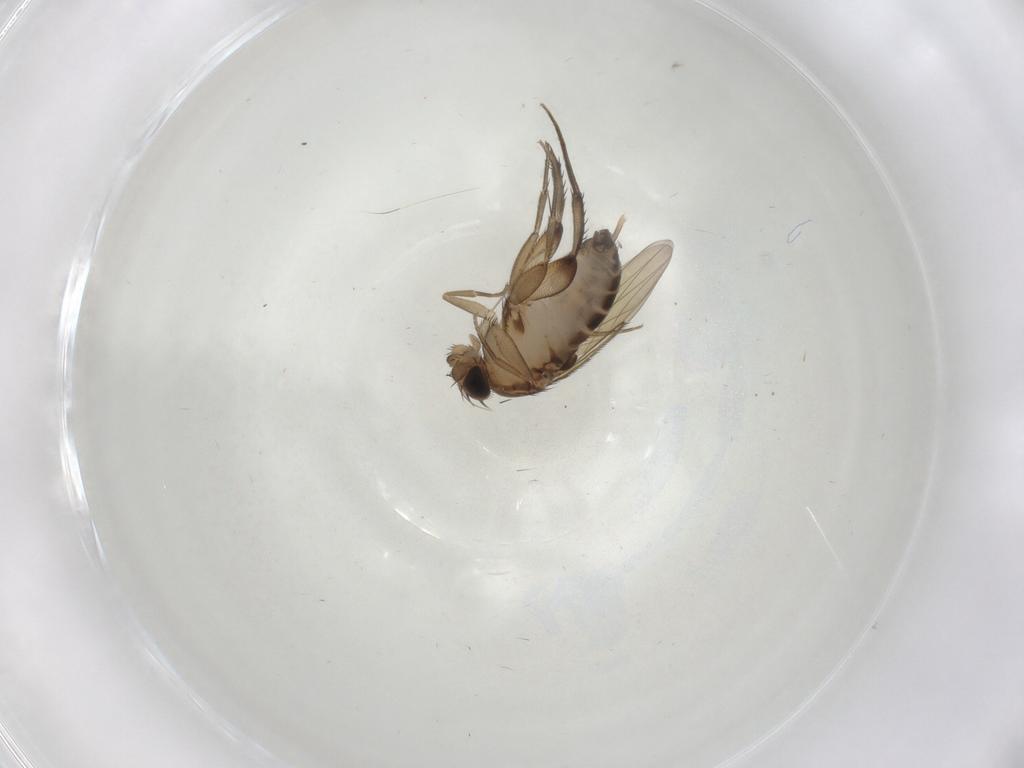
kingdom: Animalia
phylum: Arthropoda
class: Insecta
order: Diptera
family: Phoridae
